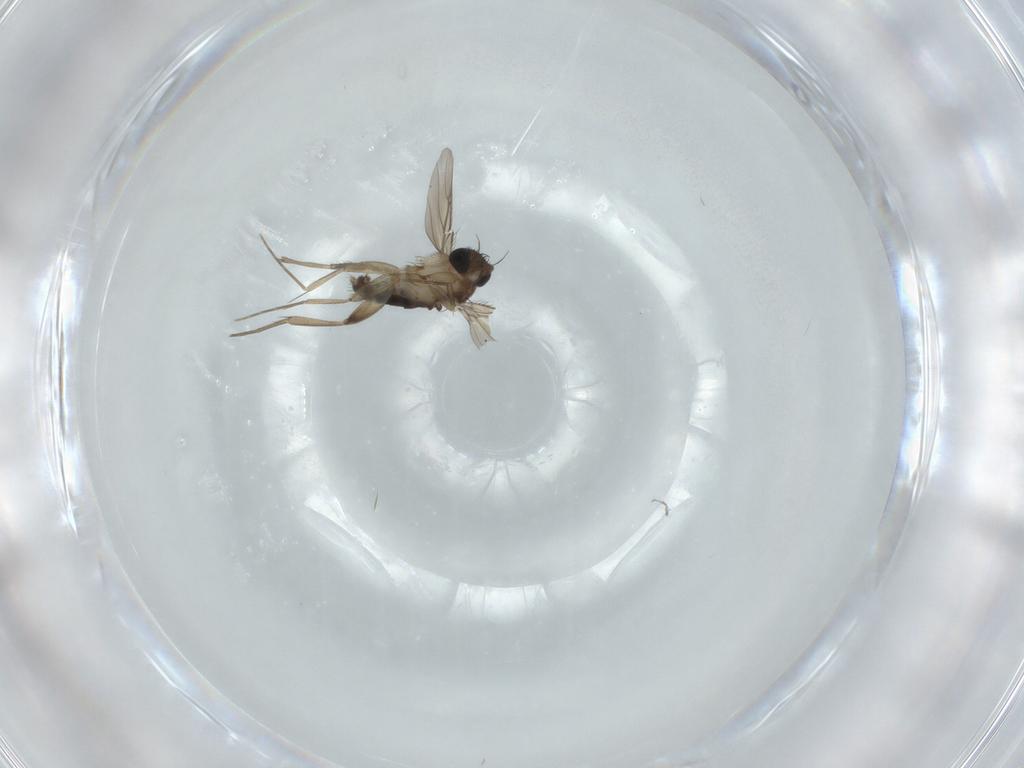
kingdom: Animalia
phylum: Arthropoda
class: Insecta
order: Diptera
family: Phoridae
